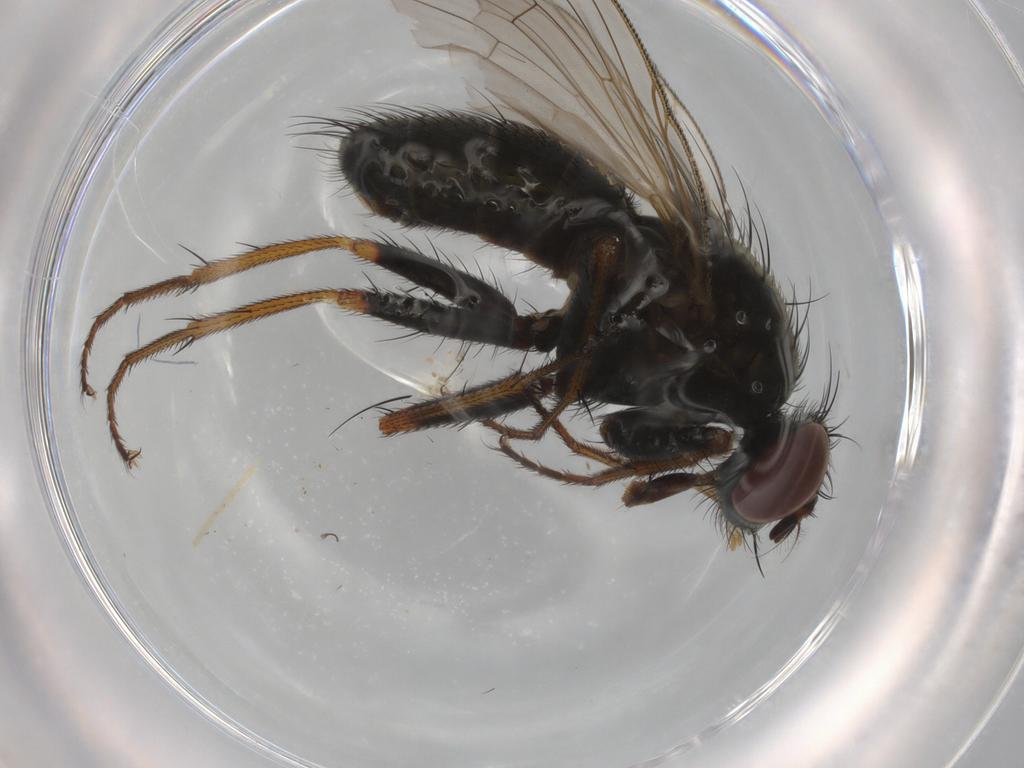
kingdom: Animalia
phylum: Arthropoda
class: Insecta
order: Diptera
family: Muscidae
